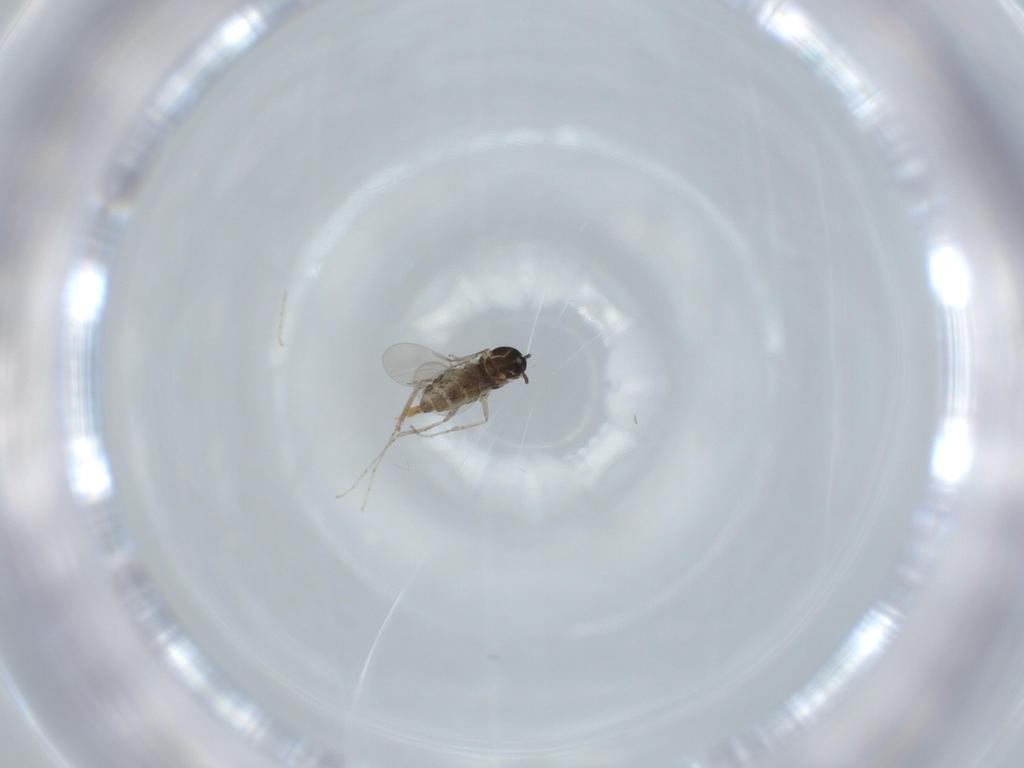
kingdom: Animalia
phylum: Arthropoda
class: Insecta
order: Diptera
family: Cecidomyiidae
